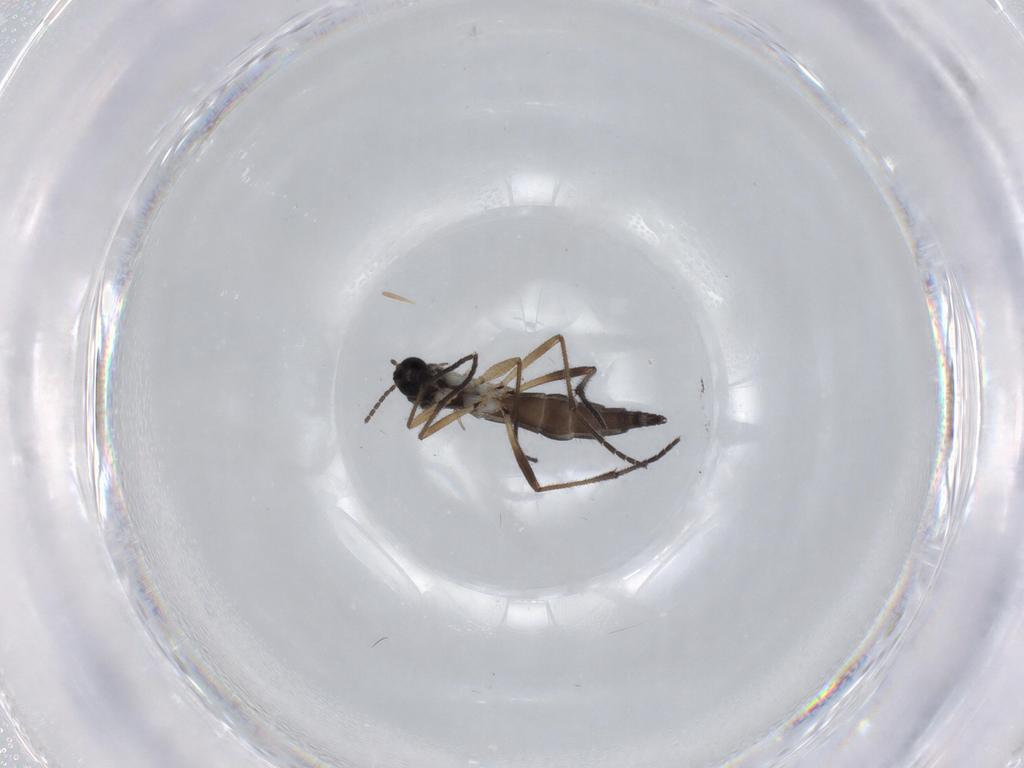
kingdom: Animalia
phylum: Arthropoda
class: Insecta
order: Diptera
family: Sciaridae
